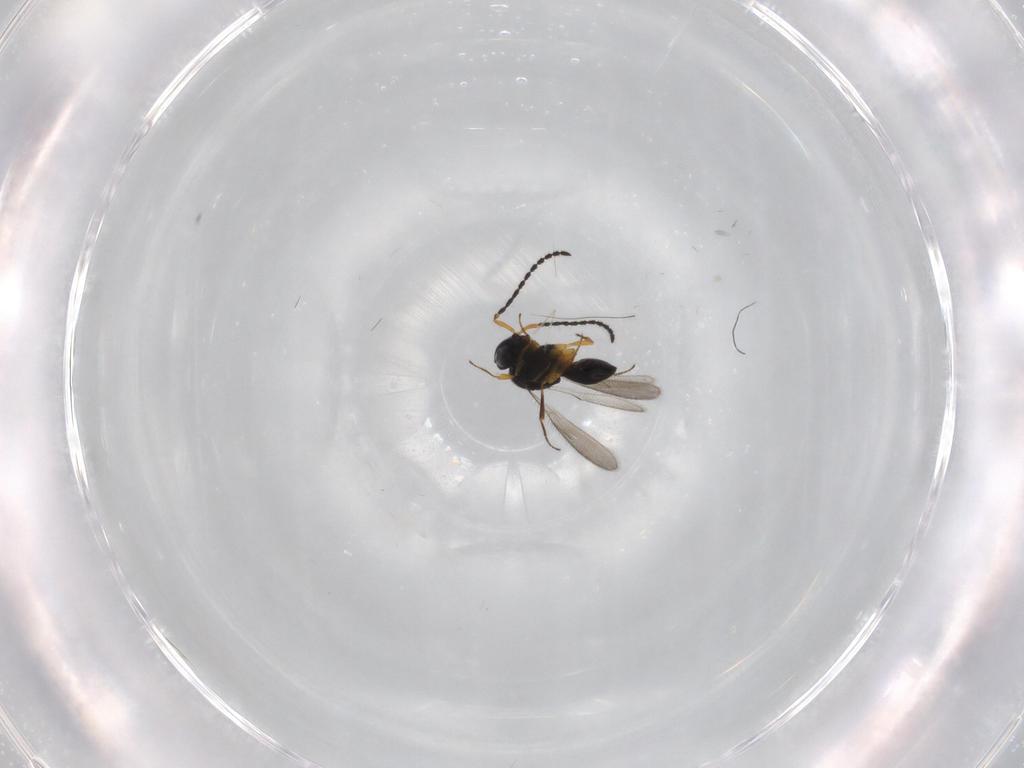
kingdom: Animalia
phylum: Arthropoda
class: Insecta
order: Hymenoptera
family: Scelionidae
